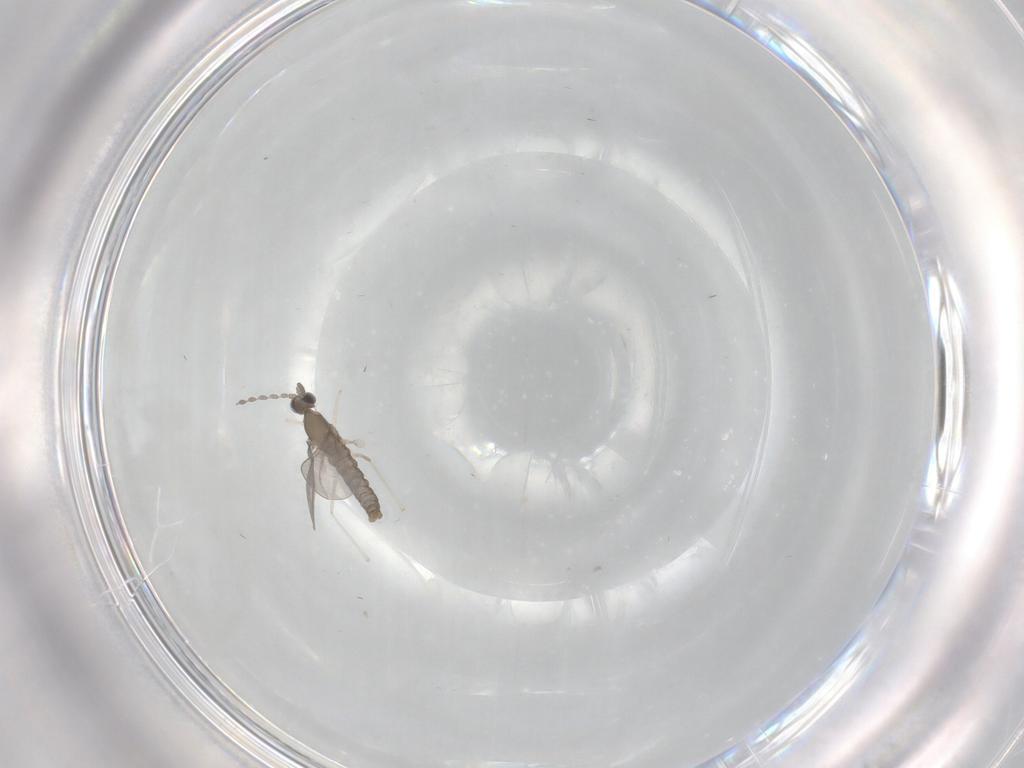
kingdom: Animalia
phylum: Arthropoda
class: Insecta
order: Diptera
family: Cecidomyiidae
